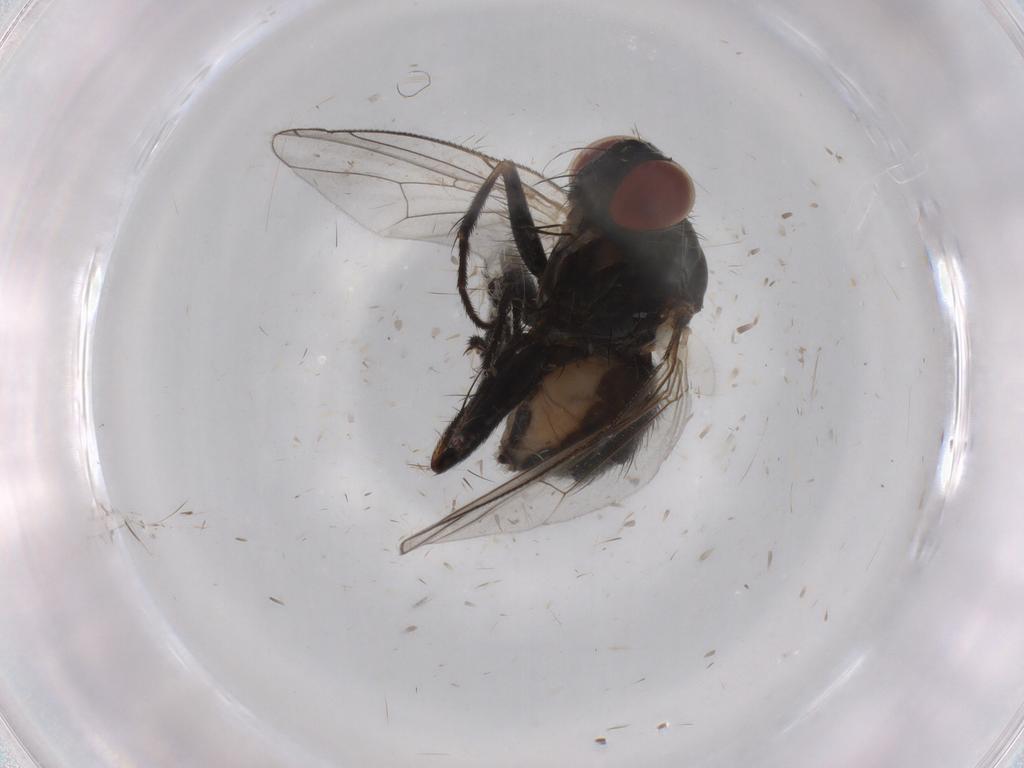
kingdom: Animalia
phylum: Arthropoda
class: Insecta
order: Diptera
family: Muscidae
